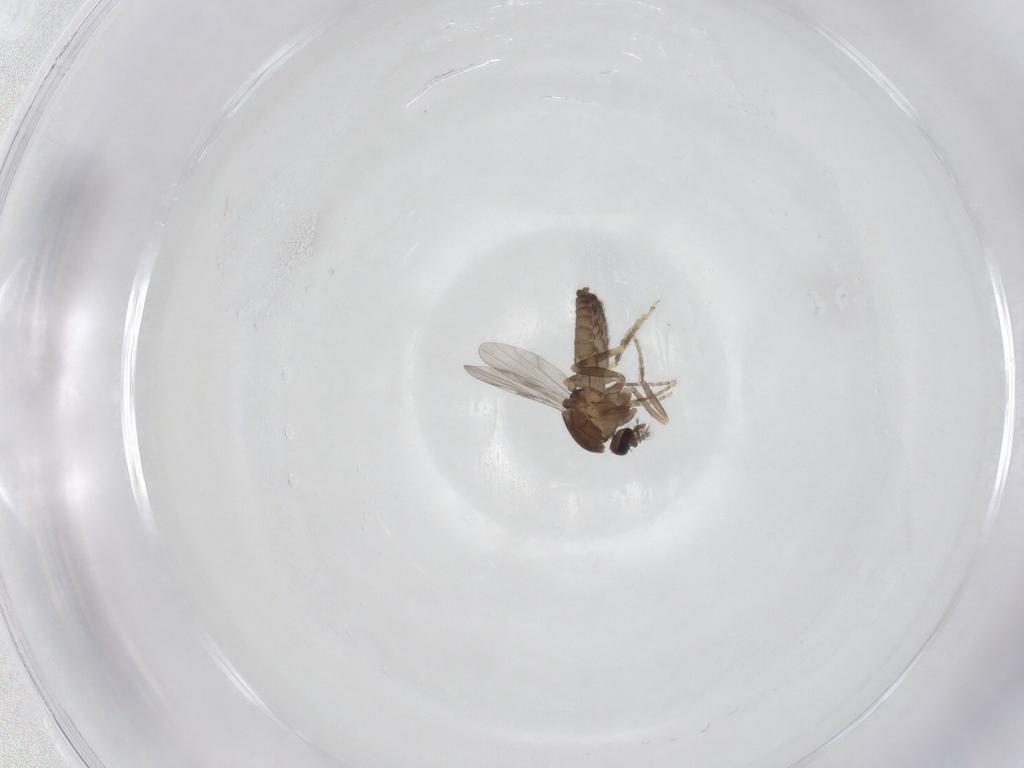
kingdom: Animalia
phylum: Arthropoda
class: Insecta
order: Diptera
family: Ceratopogonidae
